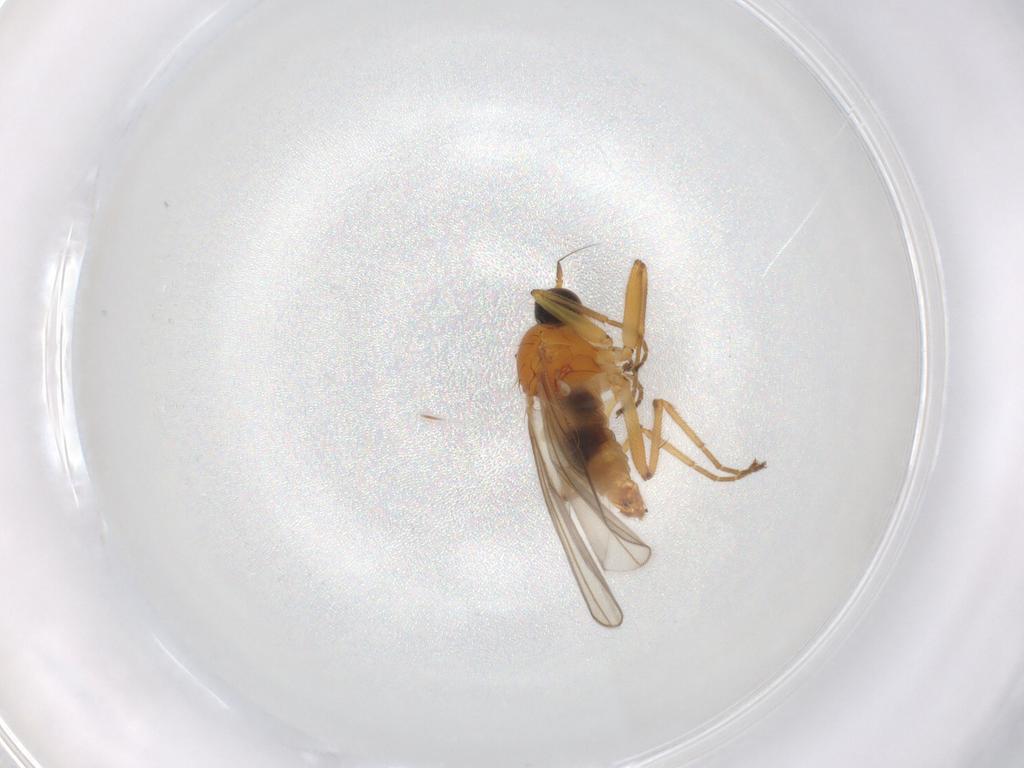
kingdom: Animalia
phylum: Arthropoda
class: Insecta
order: Diptera
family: Hybotidae
